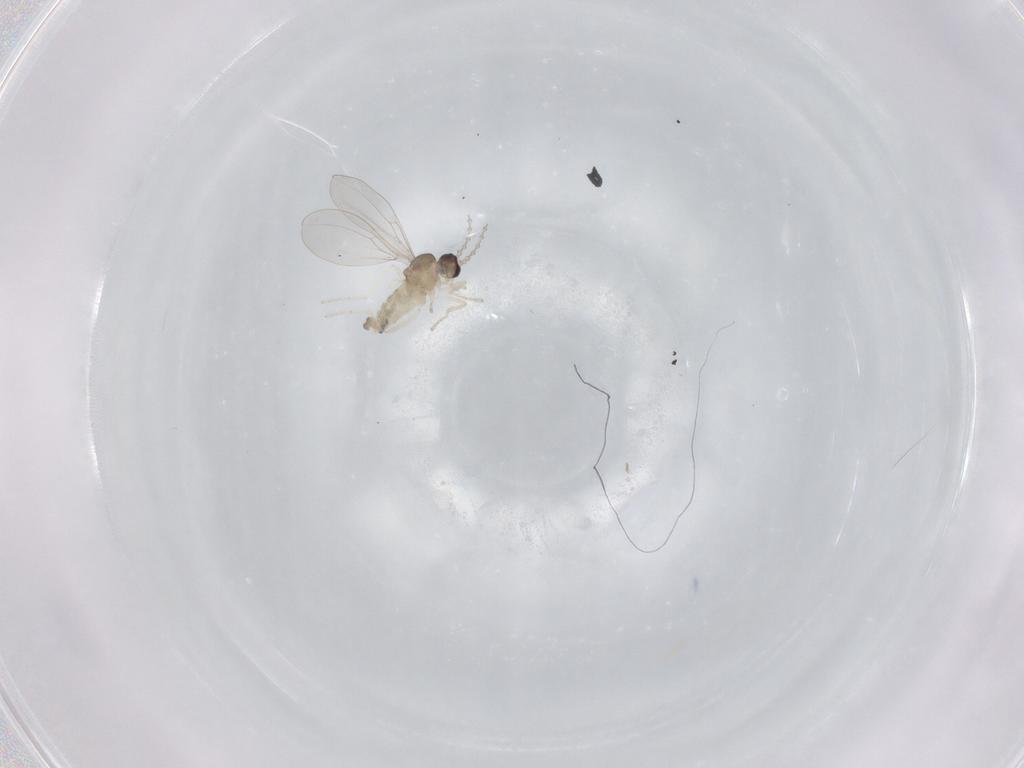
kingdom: Animalia
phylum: Arthropoda
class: Insecta
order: Diptera
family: Cecidomyiidae
